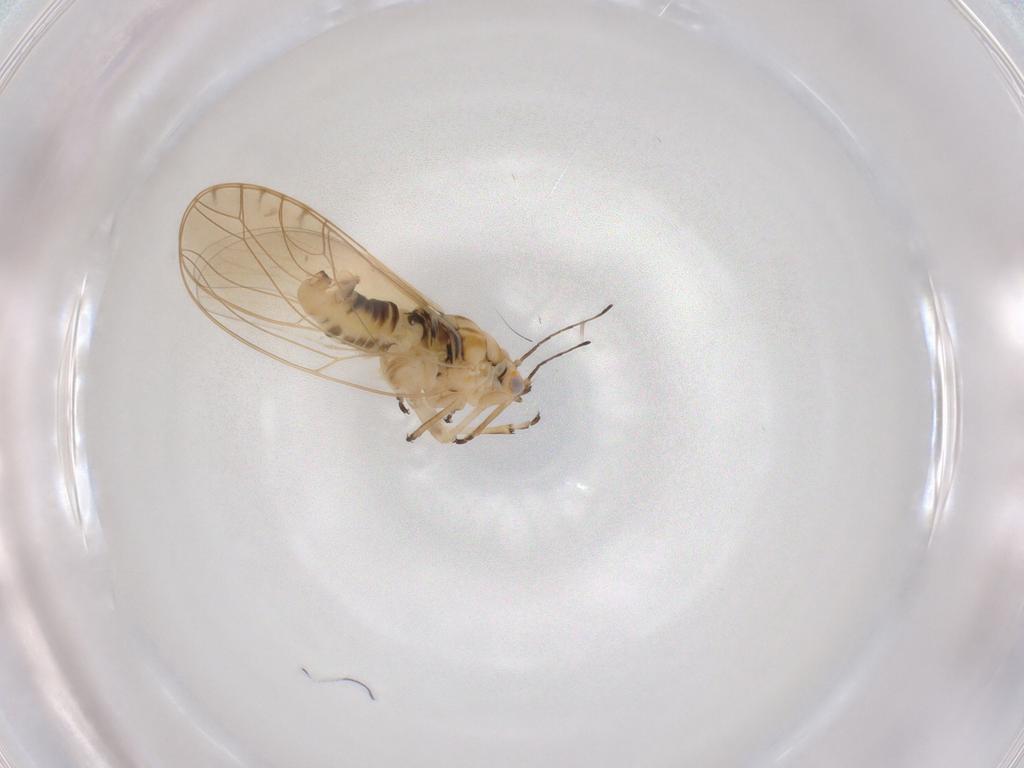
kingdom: Animalia
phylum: Arthropoda
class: Insecta
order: Hemiptera
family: Triozidae
